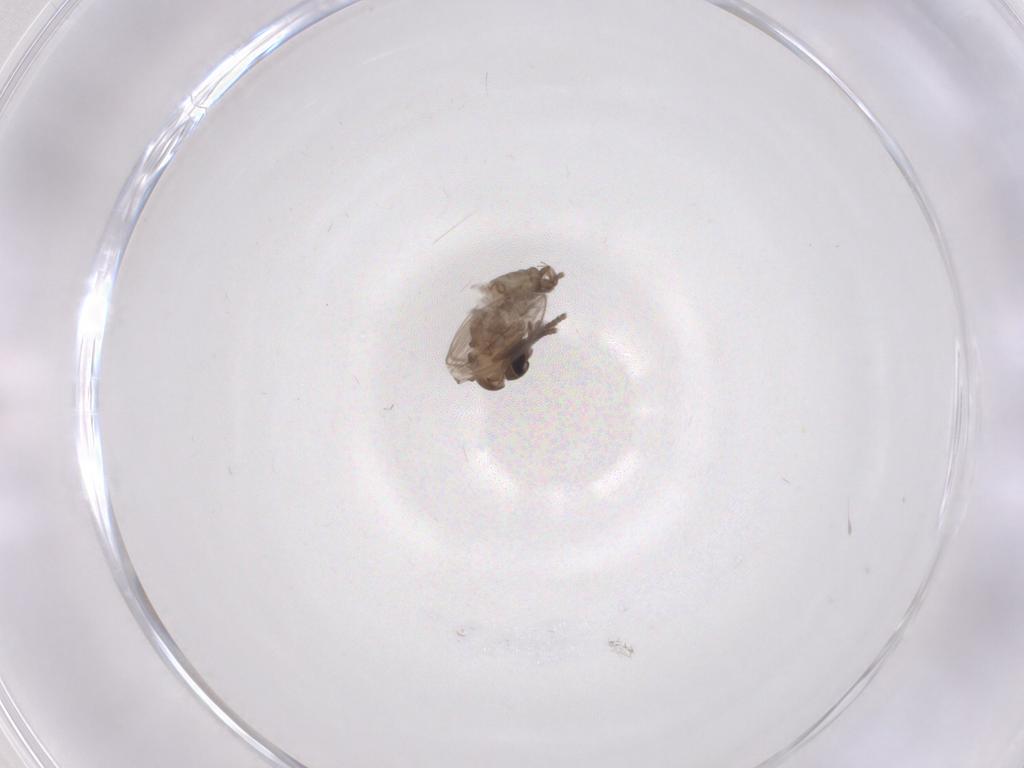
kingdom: Animalia
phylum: Arthropoda
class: Insecta
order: Diptera
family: Psychodidae
